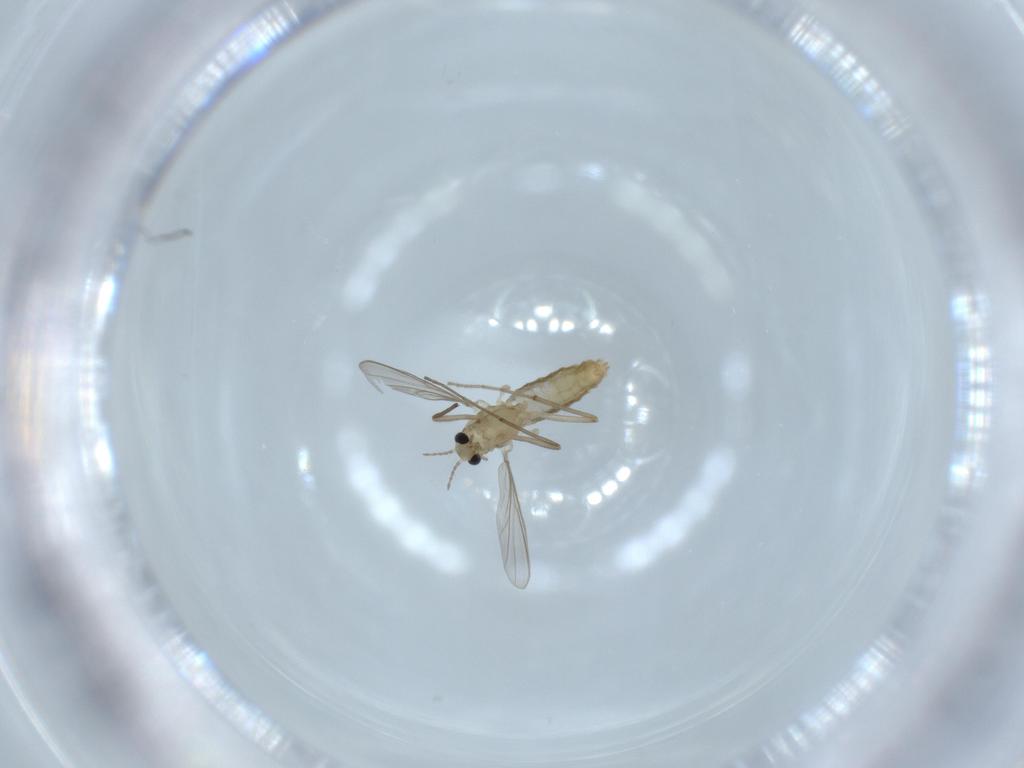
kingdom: Animalia
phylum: Arthropoda
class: Insecta
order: Diptera
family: Chironomidae
